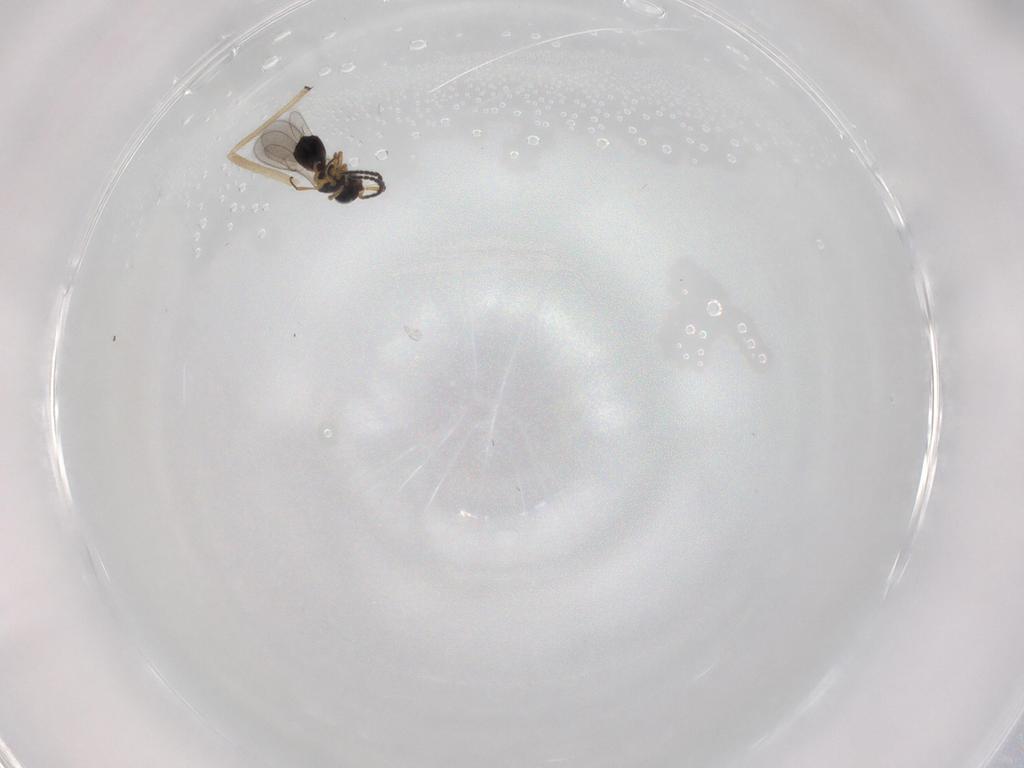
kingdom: Animalia
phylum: Arthropoda
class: Insecta
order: Hymenoptera
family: Scelionidae
